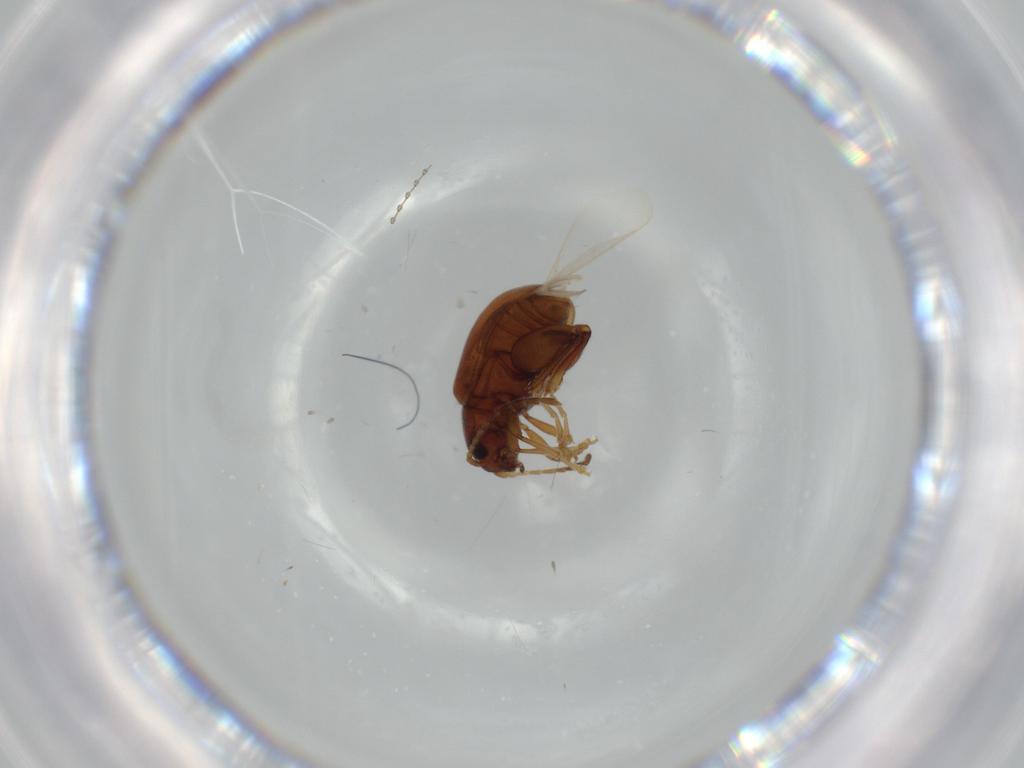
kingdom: Animalia
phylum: Arthropoda
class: Insecta
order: Coleoptera
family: Chrysomelidae
